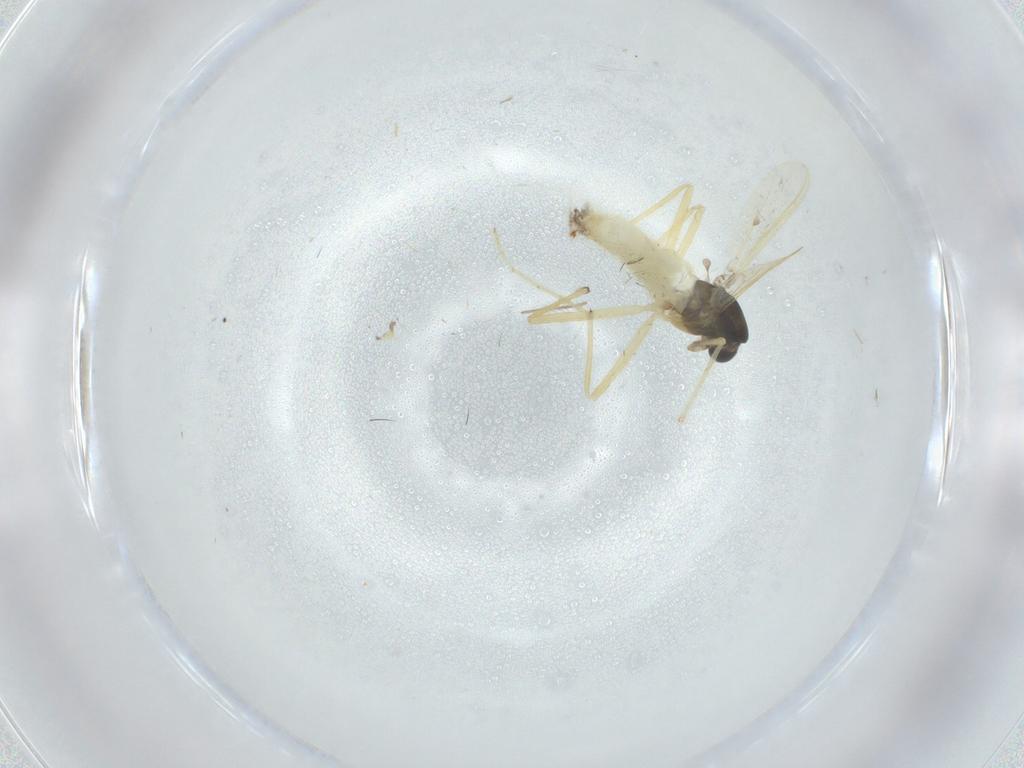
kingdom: Animalia
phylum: Arthropoda
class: Insecta
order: Diptera
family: Chironomidae
